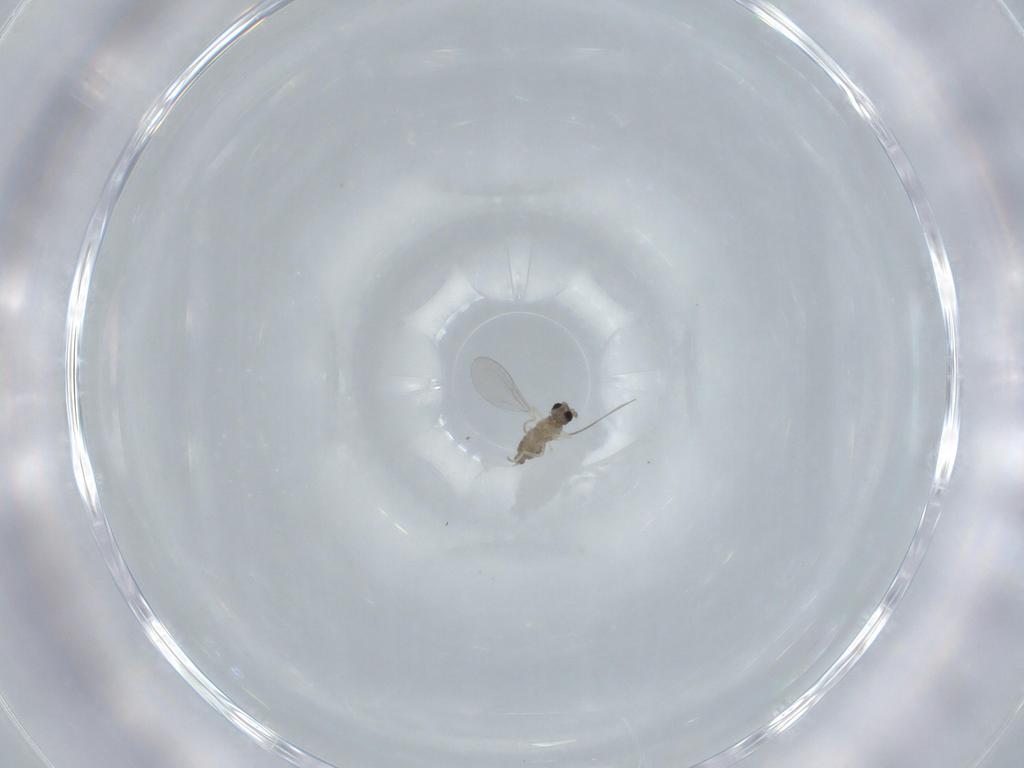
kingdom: Animalia
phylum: Arthropoda
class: Insecta
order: Diptera
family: Cecidomyiidae
